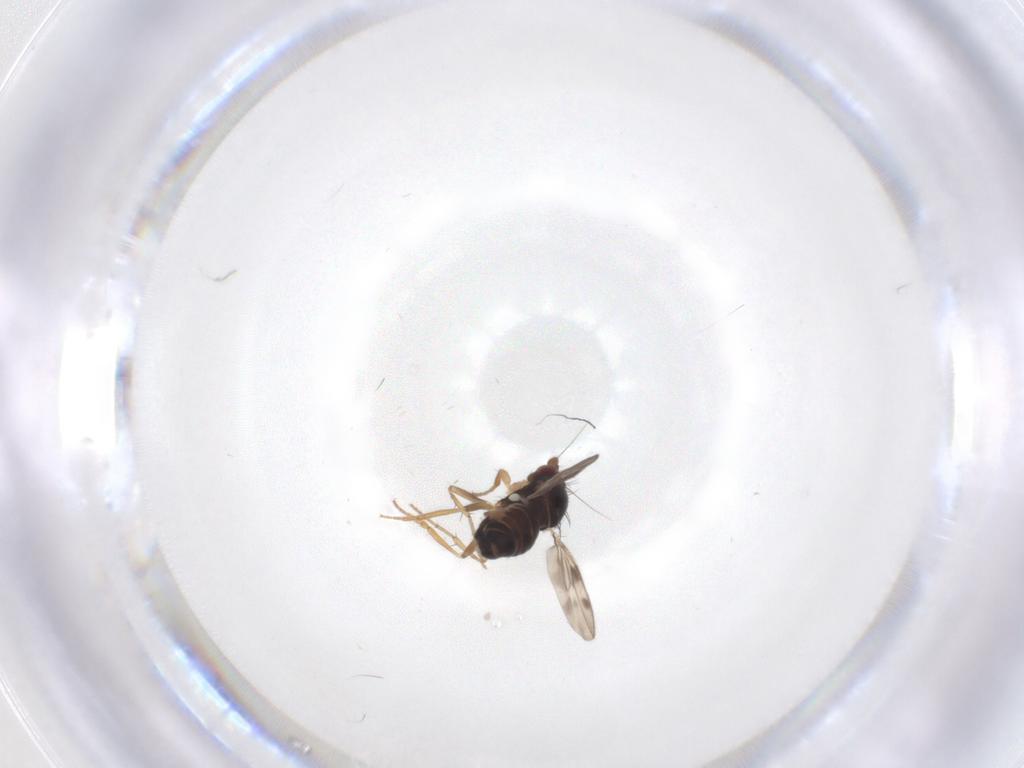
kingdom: Animalia
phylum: Arthropoda
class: Insecta
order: Diptera
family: Sphaeroceridae
